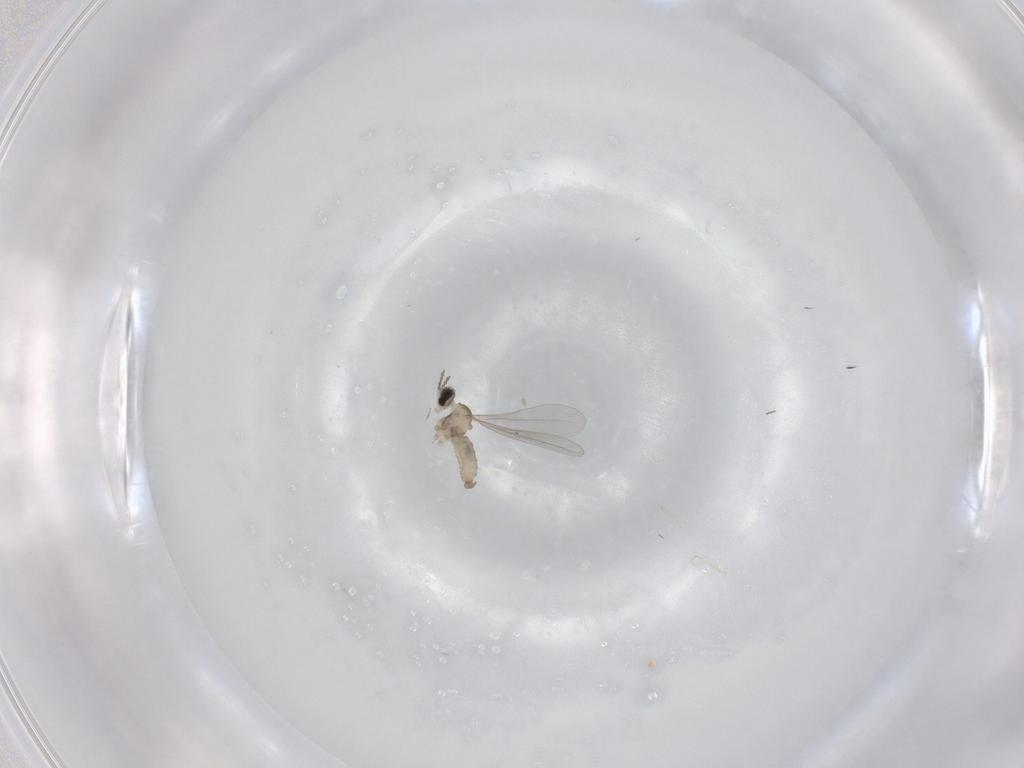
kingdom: Animalia
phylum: Arthropoda
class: Insecta
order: Diptera
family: Cecidomyiidae
